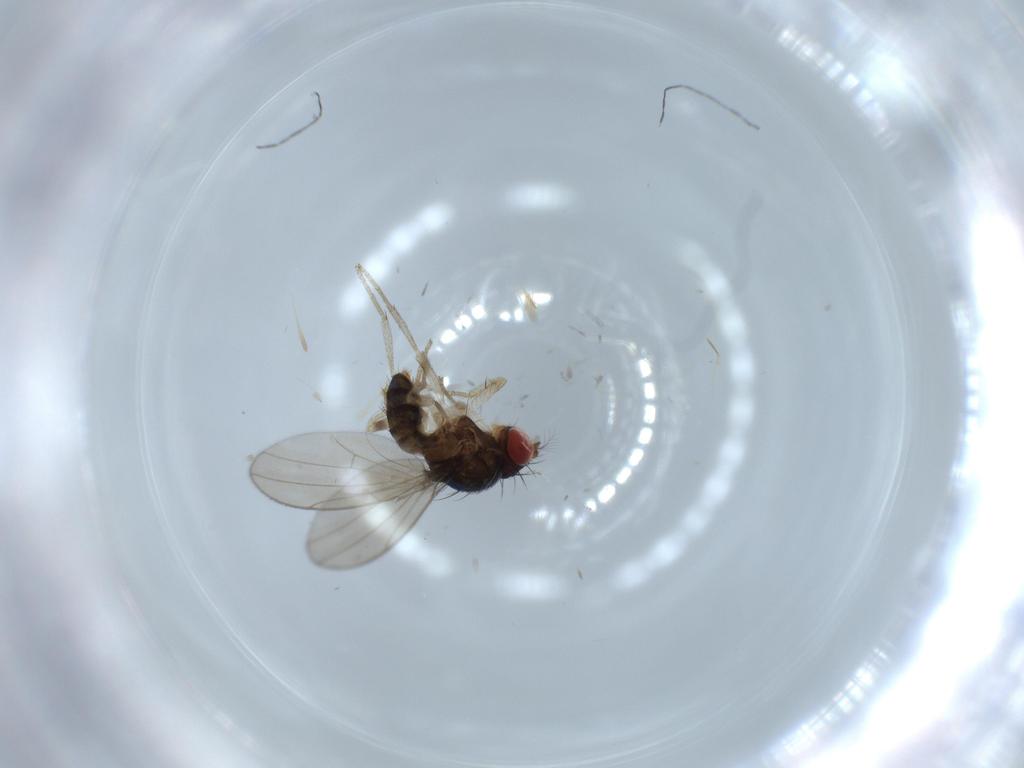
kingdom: Animalia
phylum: Arthropoda
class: Insecta
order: Diptera
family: Drosophilidae
